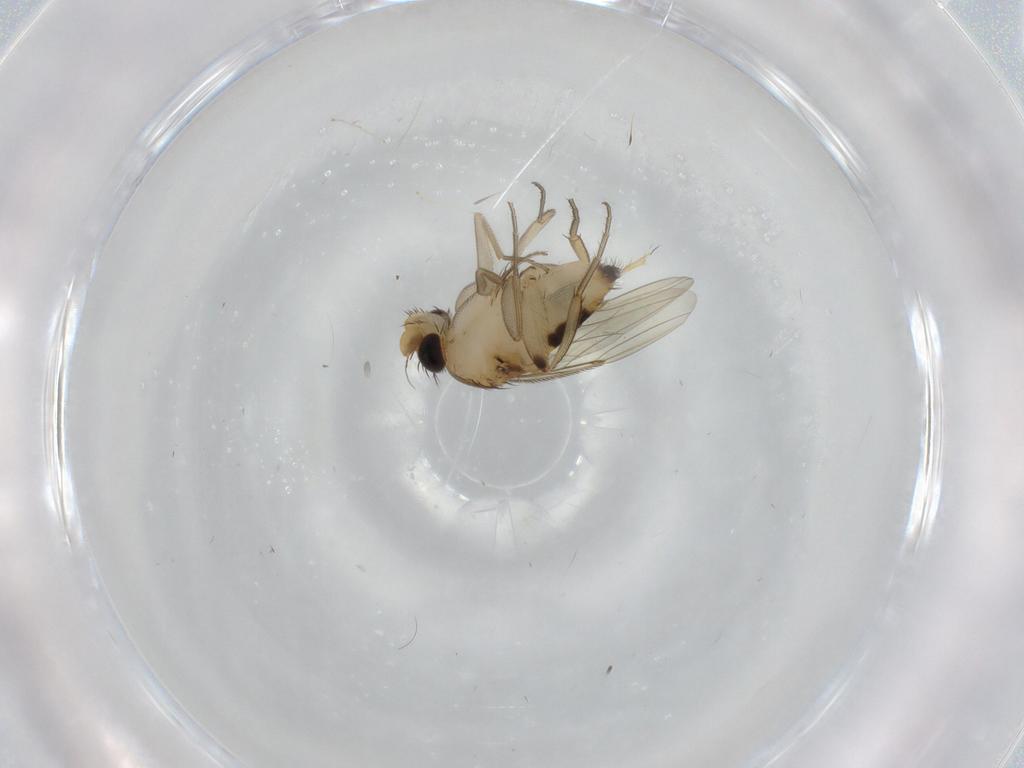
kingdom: Animalia
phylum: Arthropoda
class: Insecta
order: Diptera
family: Phoridae
